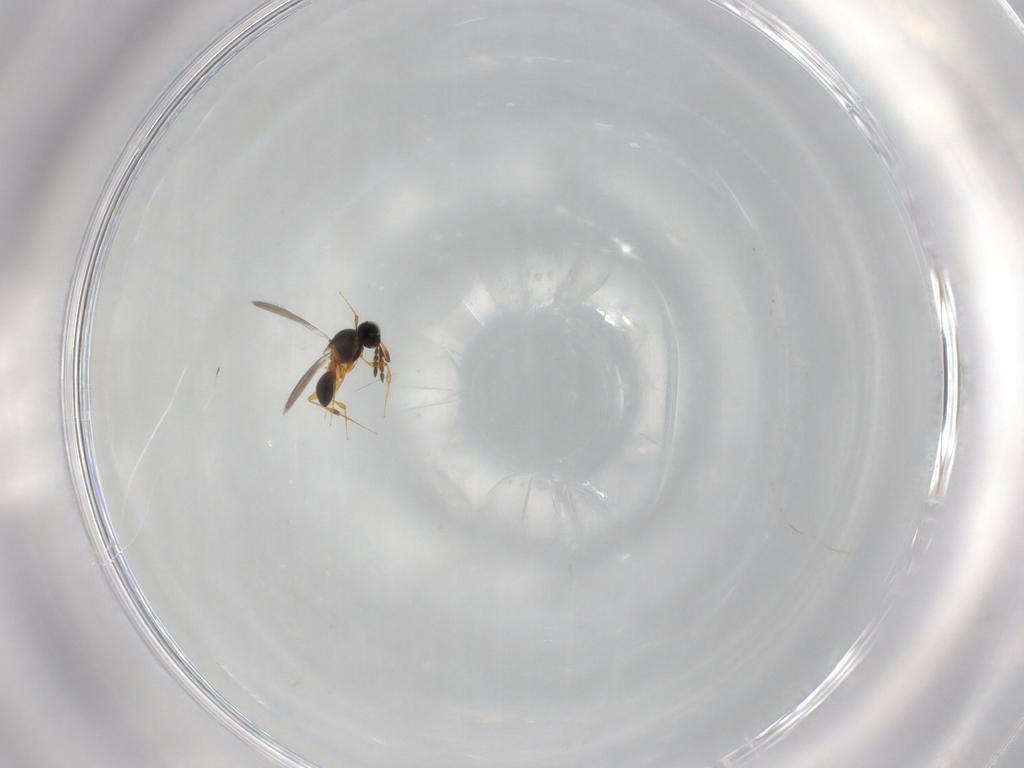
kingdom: Animalia
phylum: Arthropoda
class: Insecta
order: Hymenoptera
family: Platygastridae
